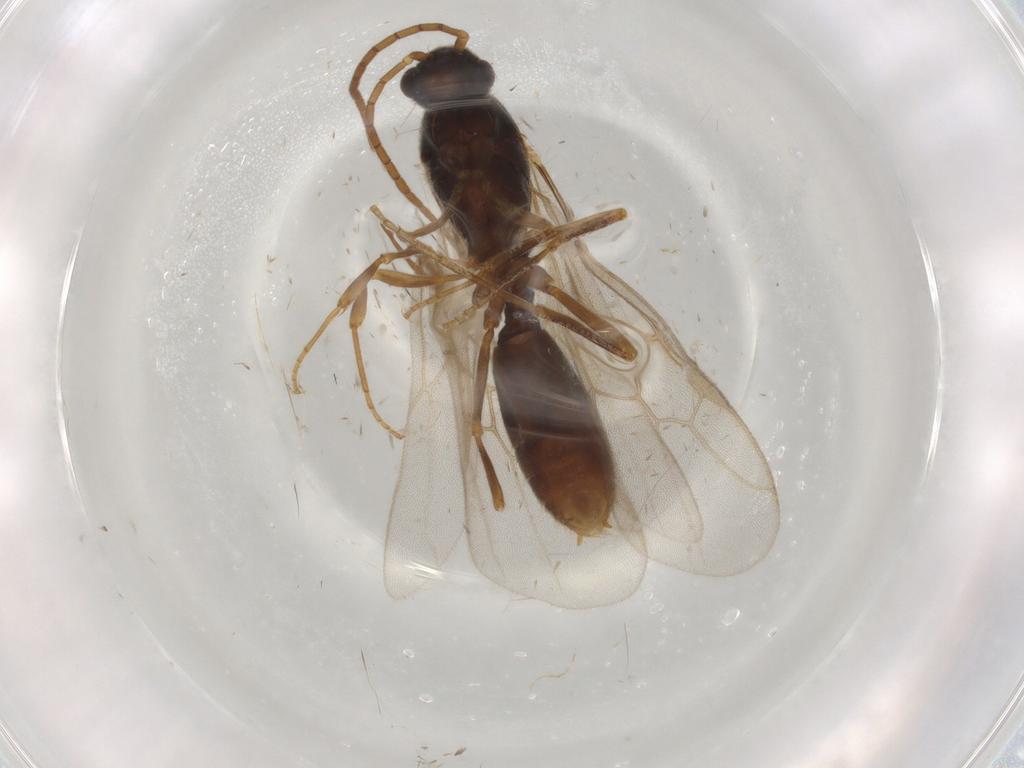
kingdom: Animalia
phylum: Arthropoda
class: Insecta
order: Hymenoptera
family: Formicidae
